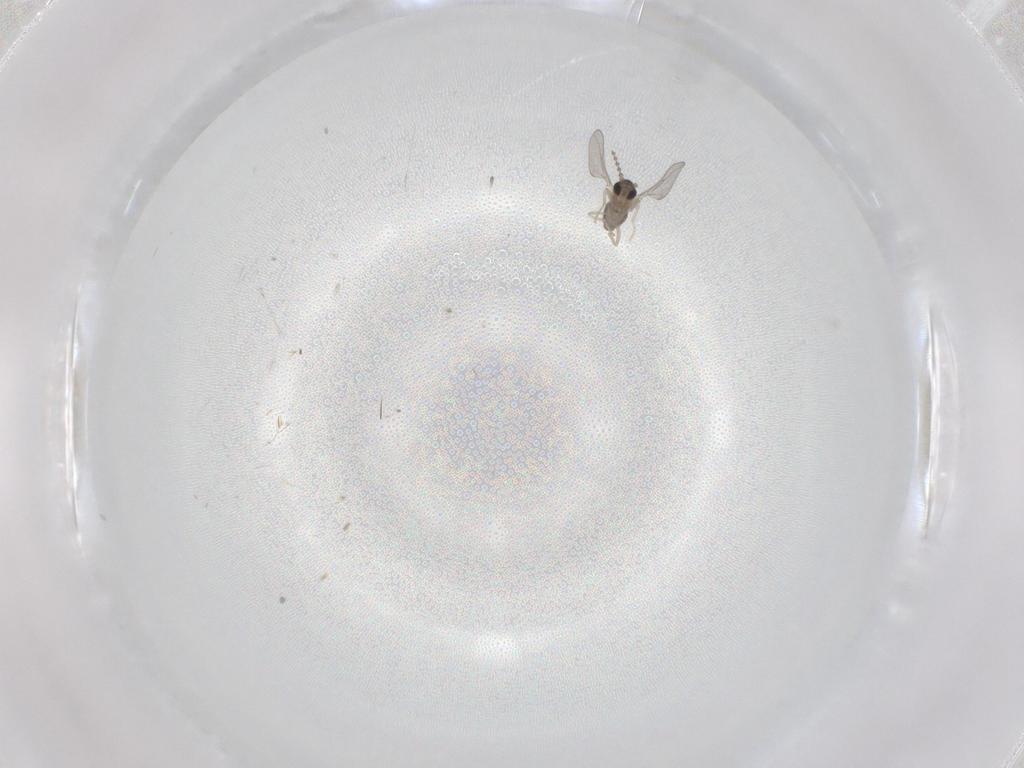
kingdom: Animalia
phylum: Arthropoda
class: Insecta
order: Diptera
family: Cecidomyiidae
